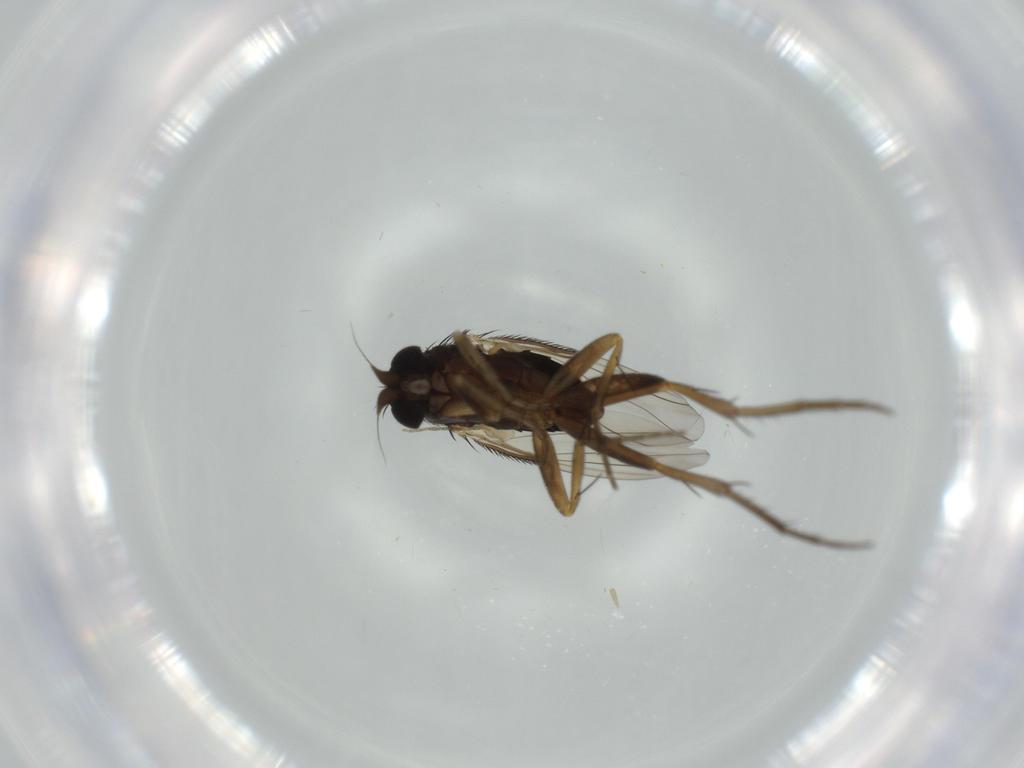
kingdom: Animalia
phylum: Arthropoda
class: Insecta
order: Diptera
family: Chironomidae
